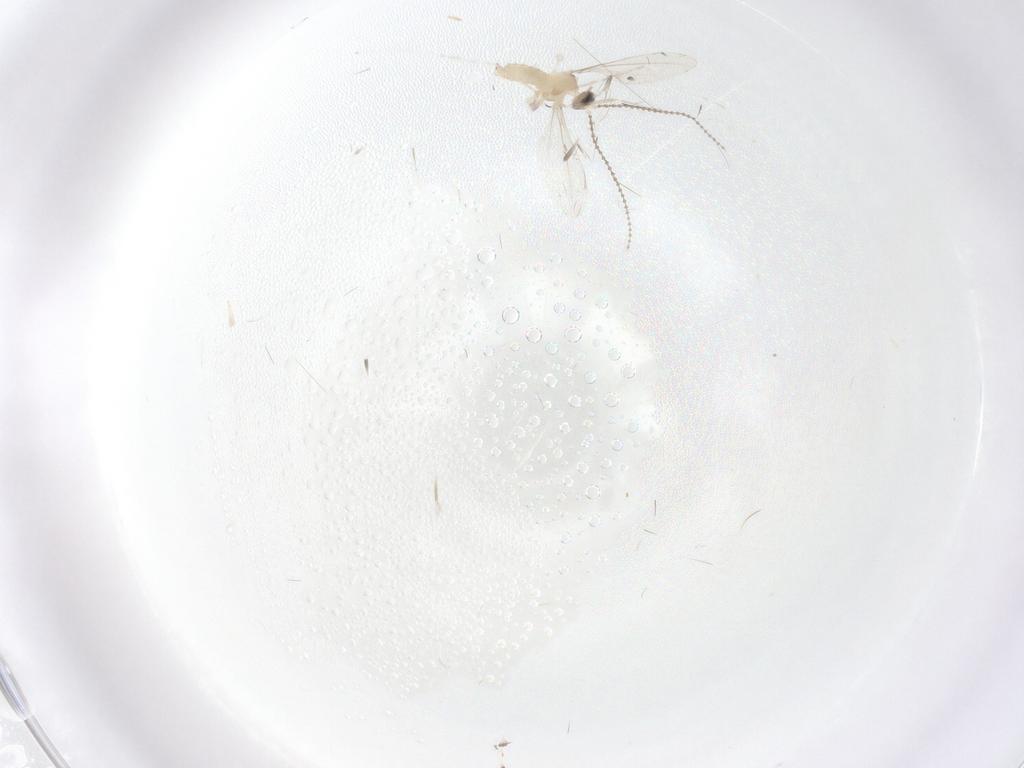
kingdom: Animalia
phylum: Arthropoda
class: Insecta
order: Diptera
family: Cecidomyiidae
